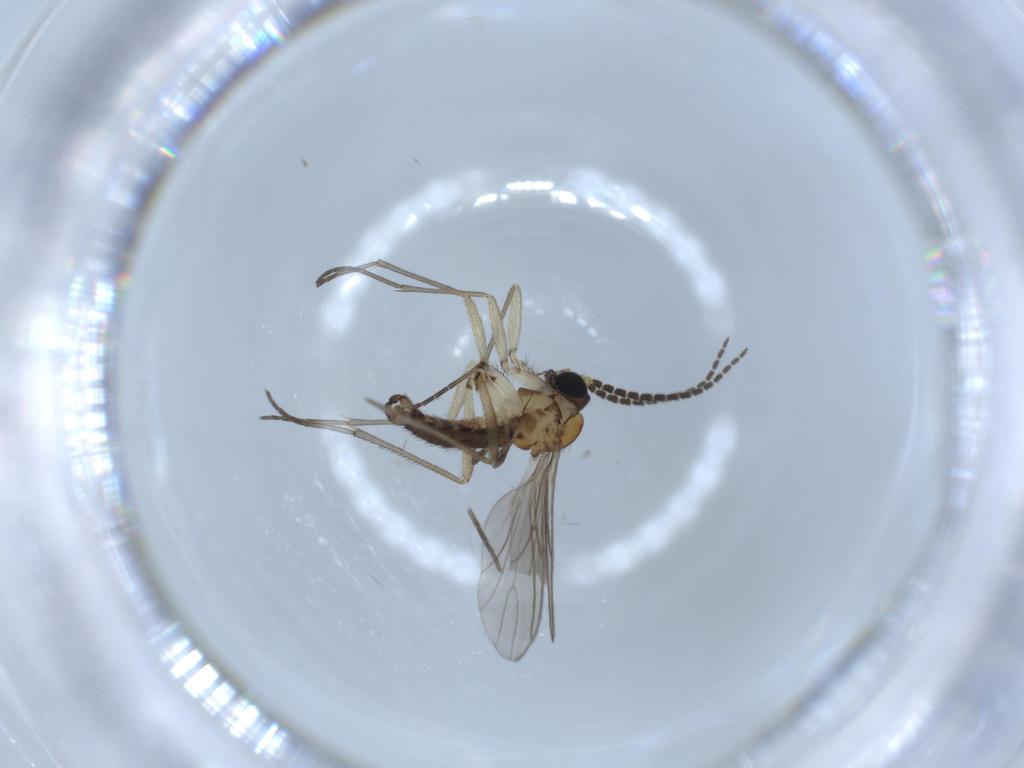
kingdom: Animalia
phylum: Arthropoda
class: Insecta
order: Diptera
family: Sciaridae
